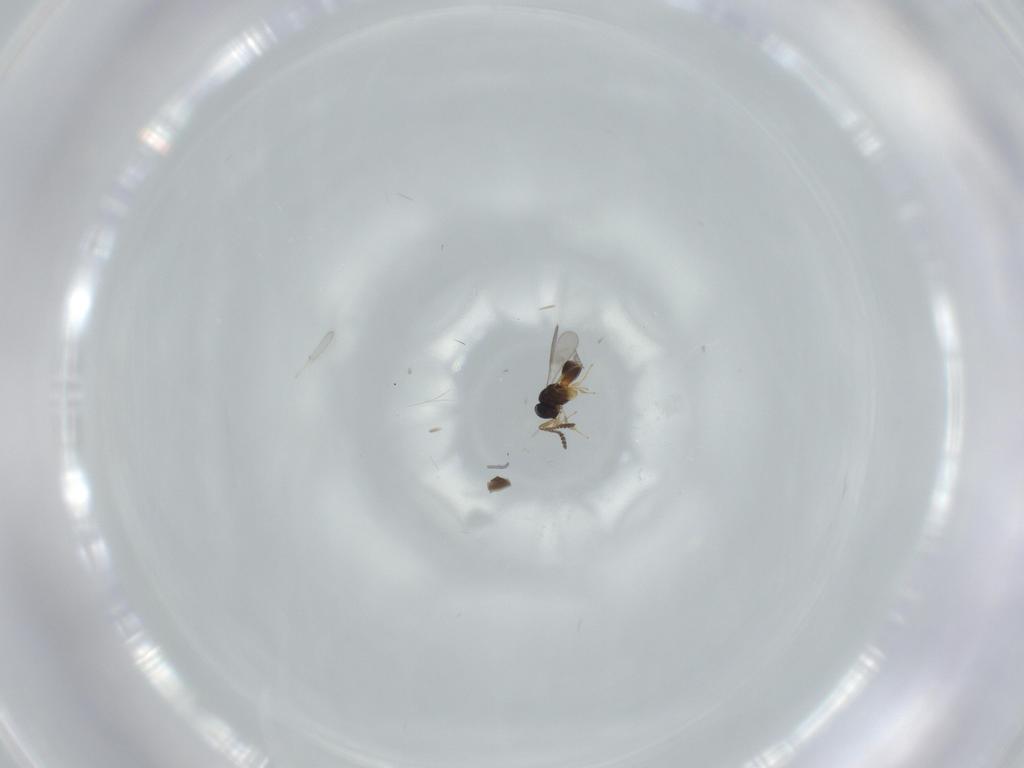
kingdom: Animalia
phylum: Arthropoda
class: Insecta
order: Hymenoptera
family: Scelionidae
